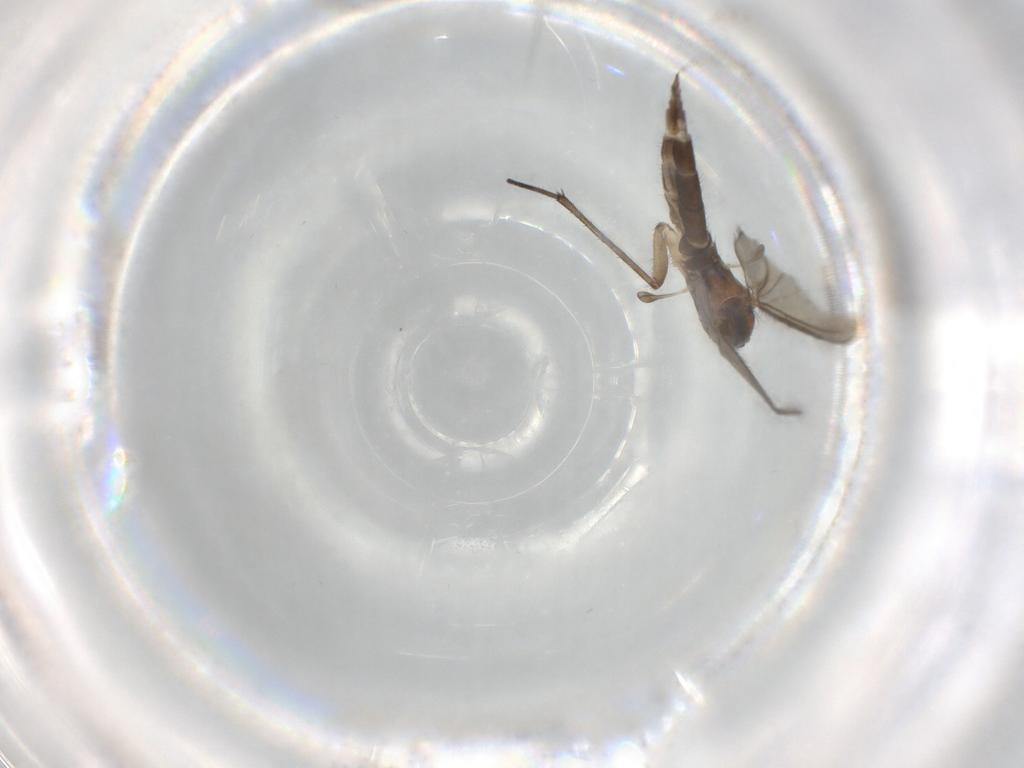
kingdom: Animalia
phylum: Arthropoda
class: Insecta
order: Diptera
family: Sciaridae
